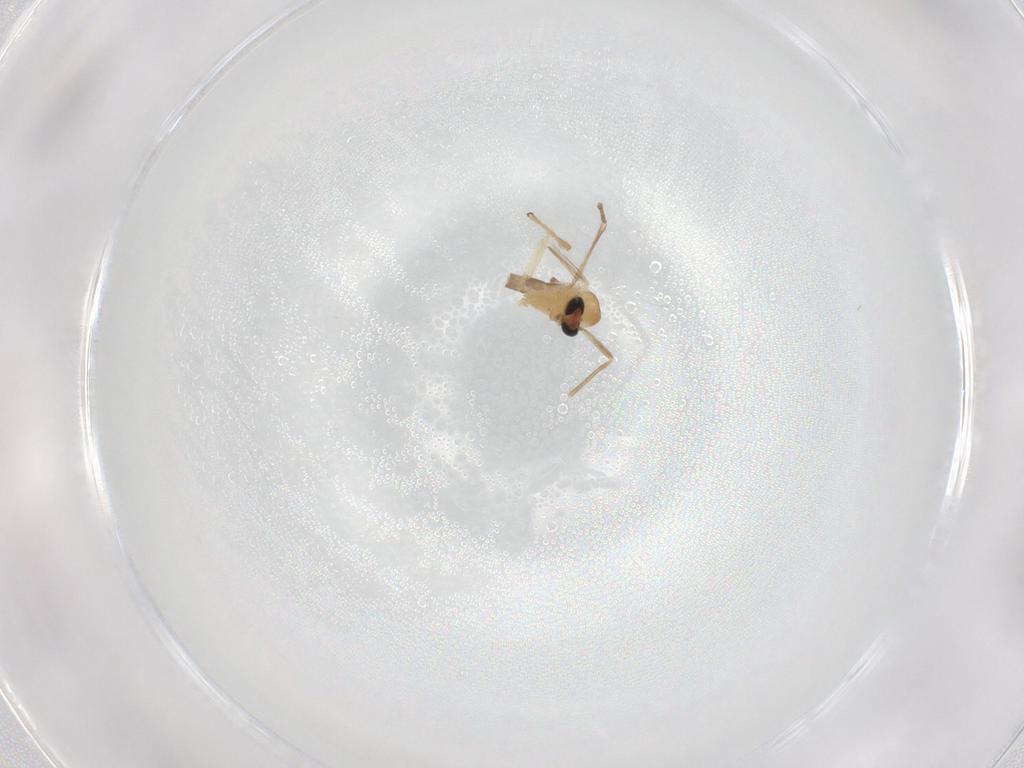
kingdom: Animalia
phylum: Arthropoda
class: Insecta
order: Diptera
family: Chironomidae
